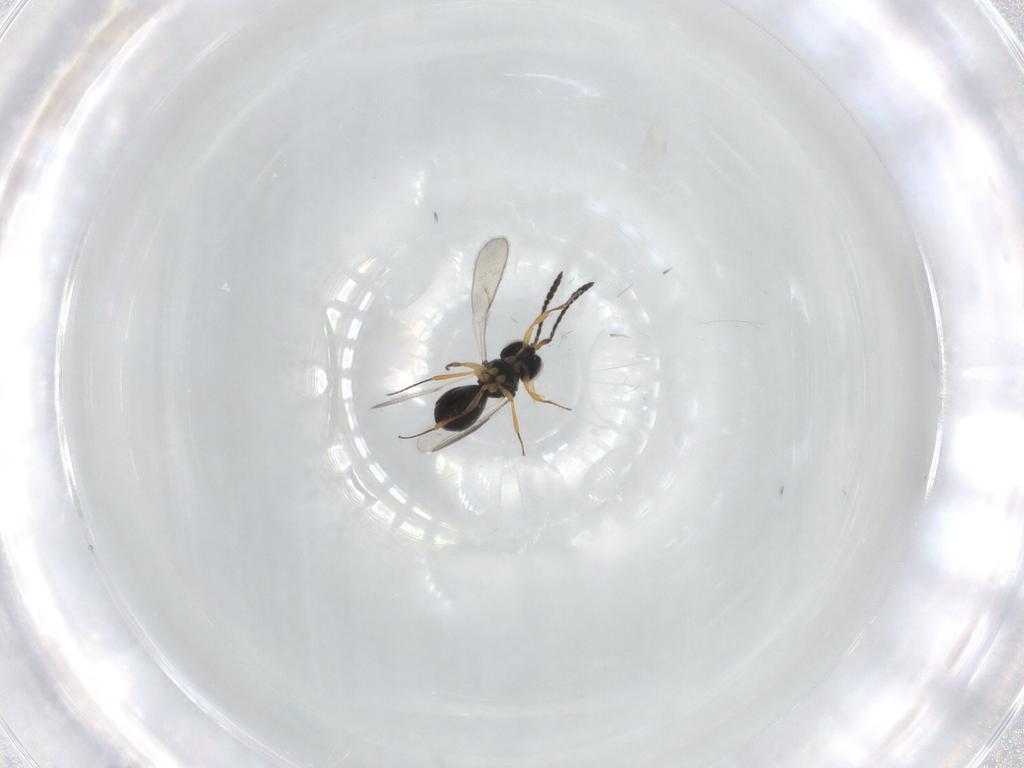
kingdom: Animalia
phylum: Arthropoda
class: Insecta
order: Hymenoptera
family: Scelionidae
